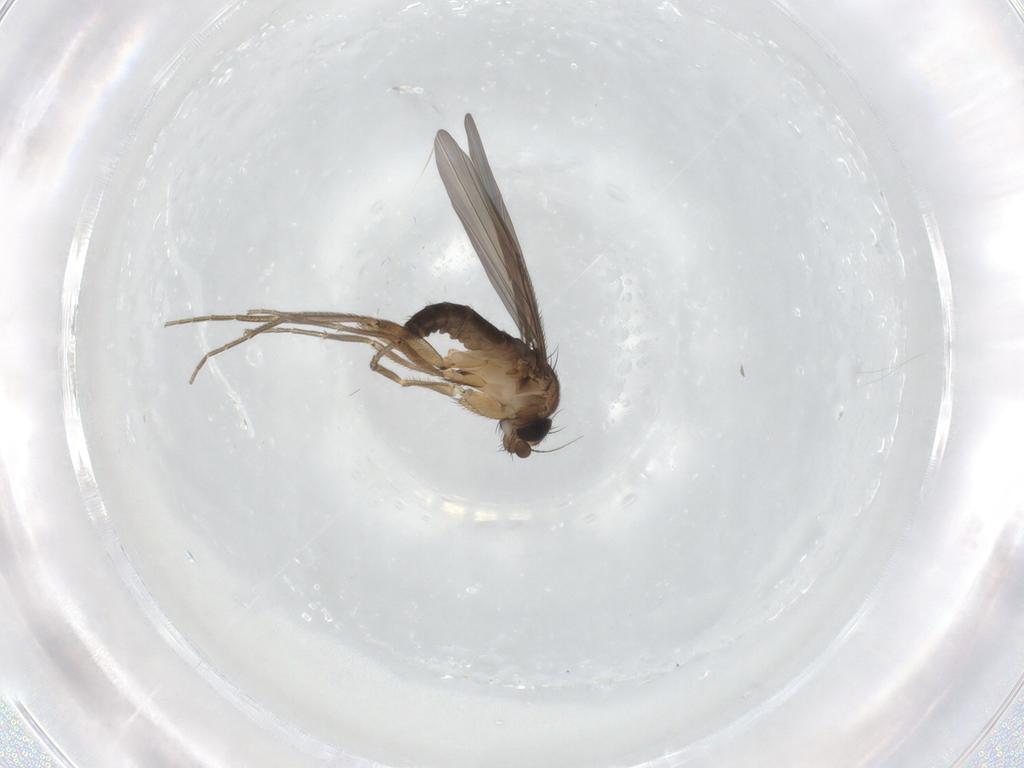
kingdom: Animalia
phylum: Arthropoda
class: Insecta
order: Diptera
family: Phoridae
